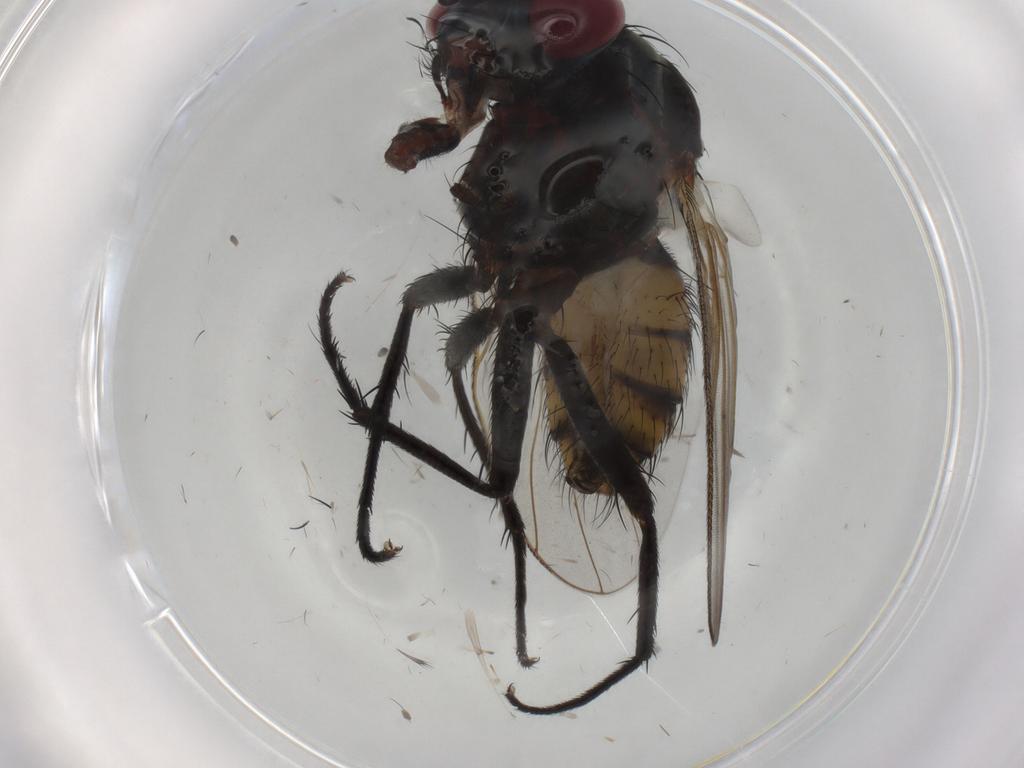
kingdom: Animalia
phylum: Arthropoda
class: Insecta
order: Diptera
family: Ceratopogonidae
